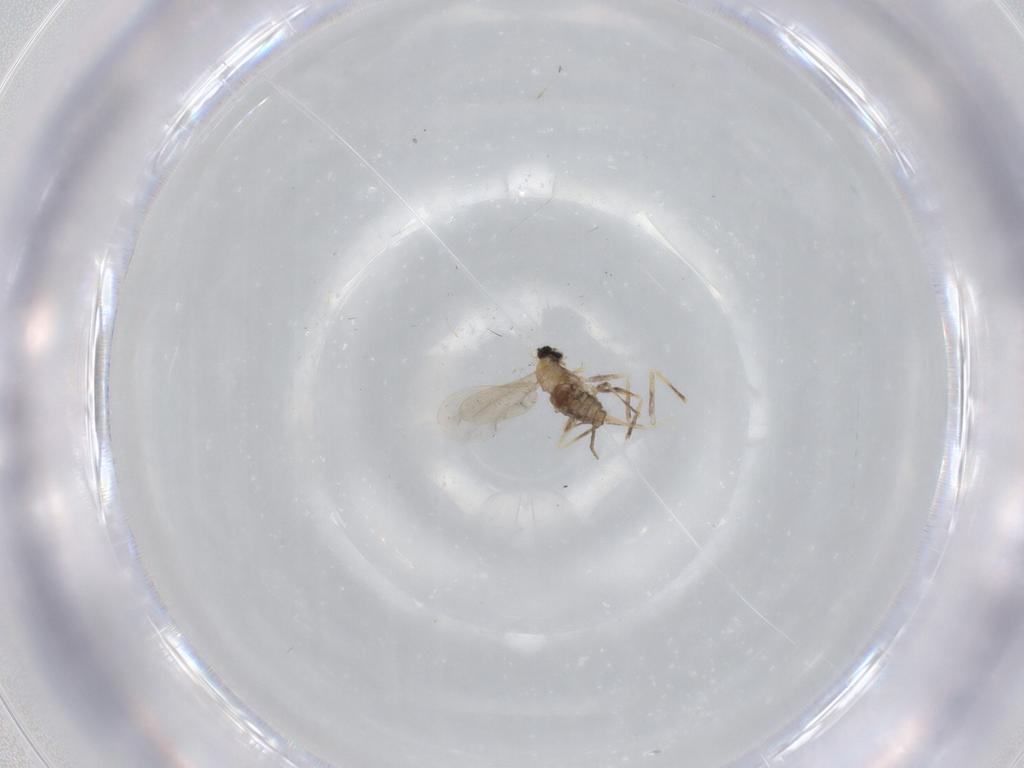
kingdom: Animalia
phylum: Arthropoda
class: Insecta
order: Diptera
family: Cecidomyiidae
